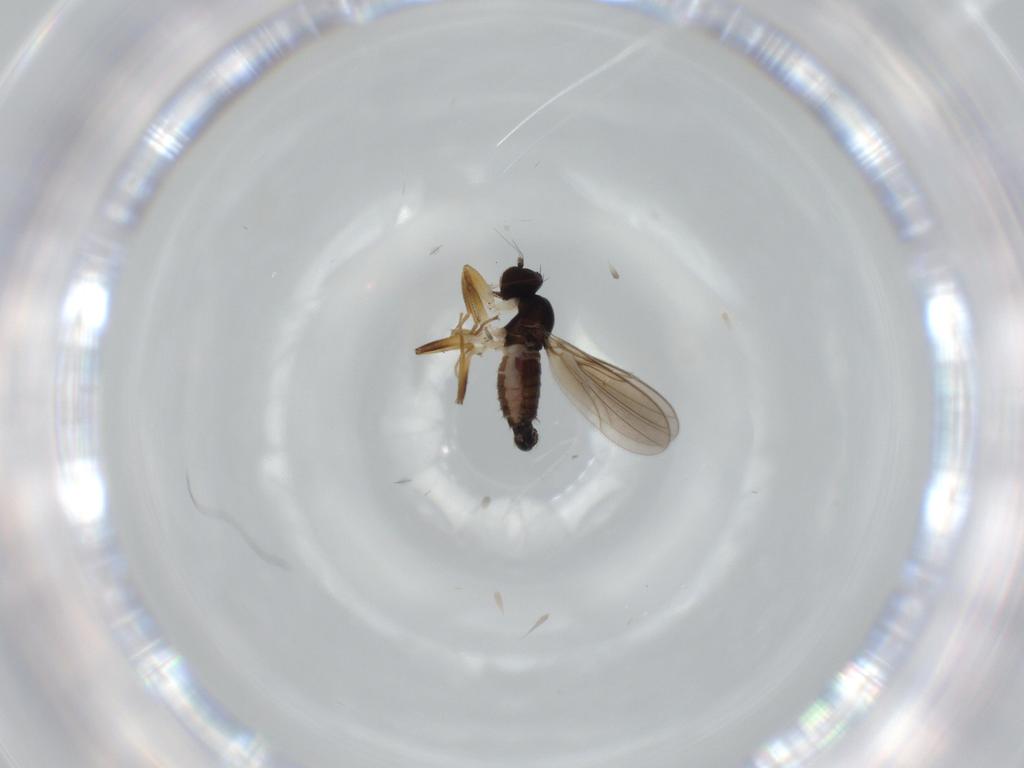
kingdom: Animalia
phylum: Arthropoda
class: Insecta
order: Diptera
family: Hybotidae
